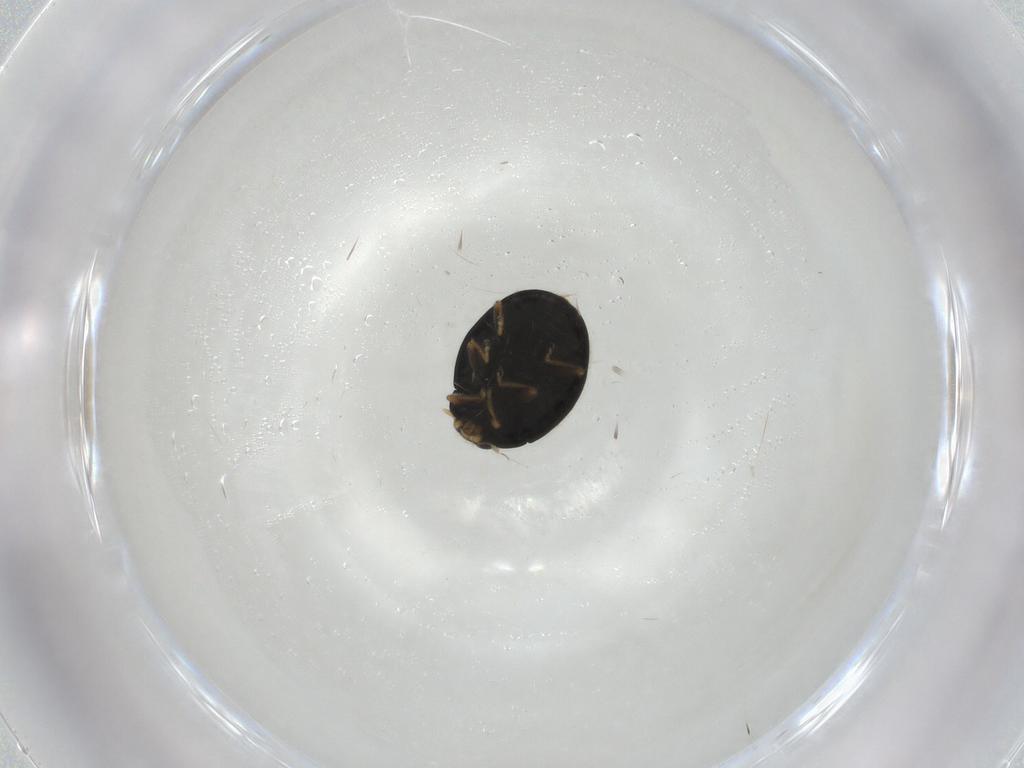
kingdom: Animalia
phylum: Arthropoda
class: Insecta
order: Coleoptera
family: Coccinellidae
